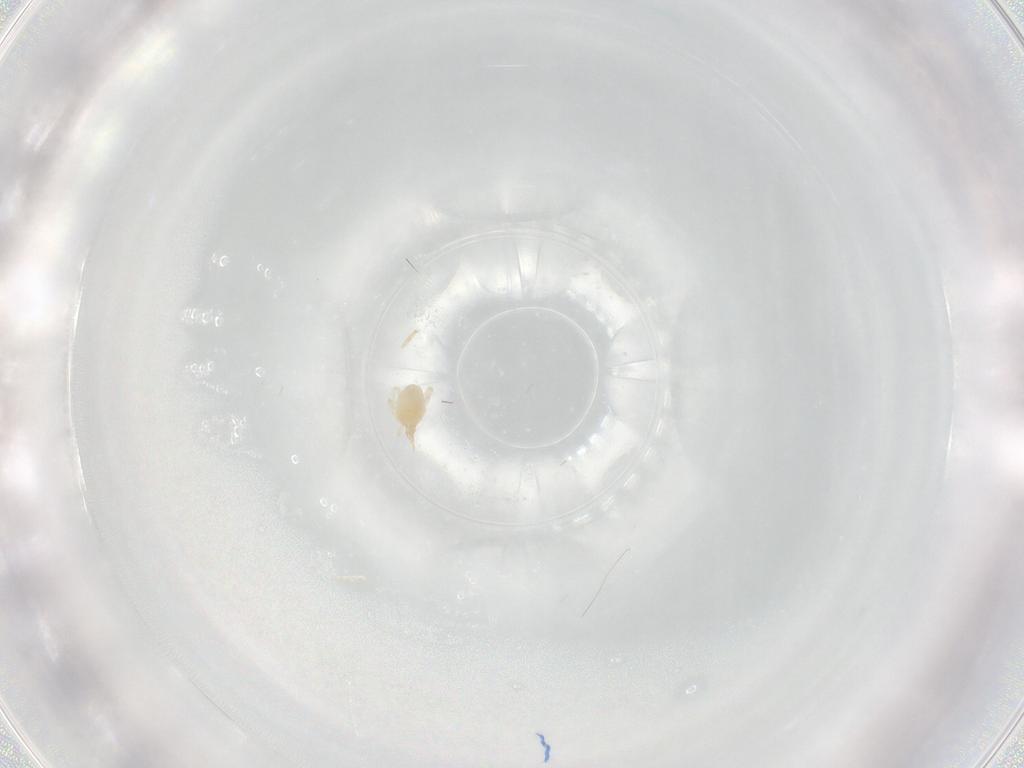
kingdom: Animalia
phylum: Arthropoda
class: Arachnida
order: Trombidiformes
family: Cunaxidae
